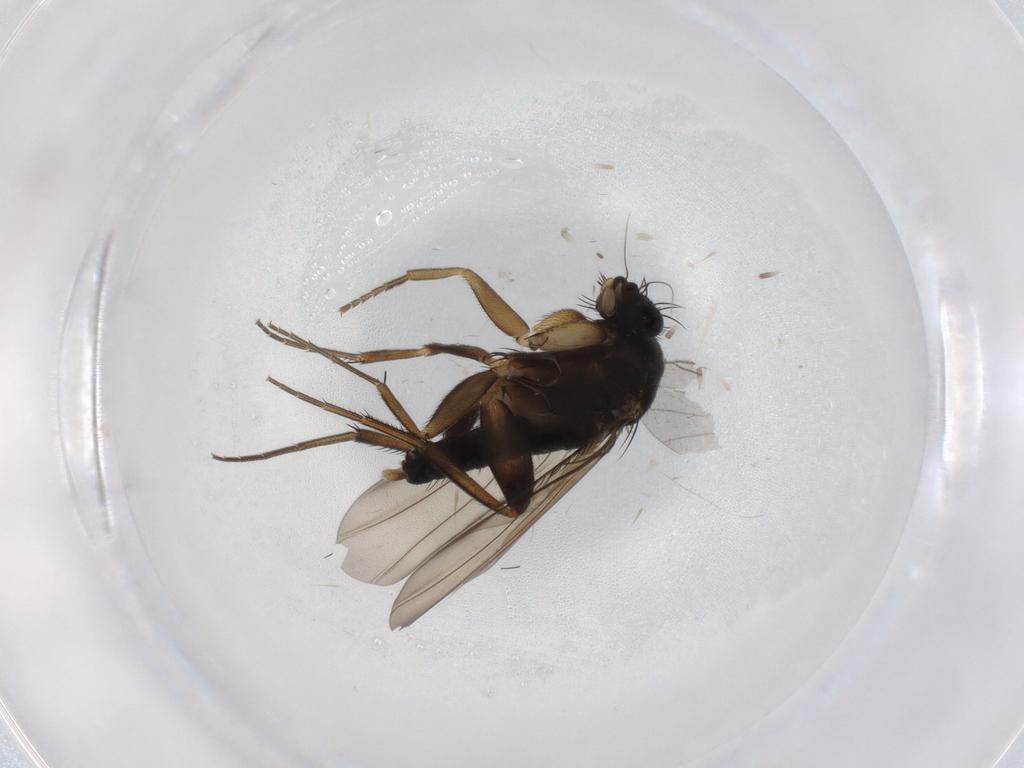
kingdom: Animalia
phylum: Arthropoda
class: Insecta
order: Diptera
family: Phoridae
